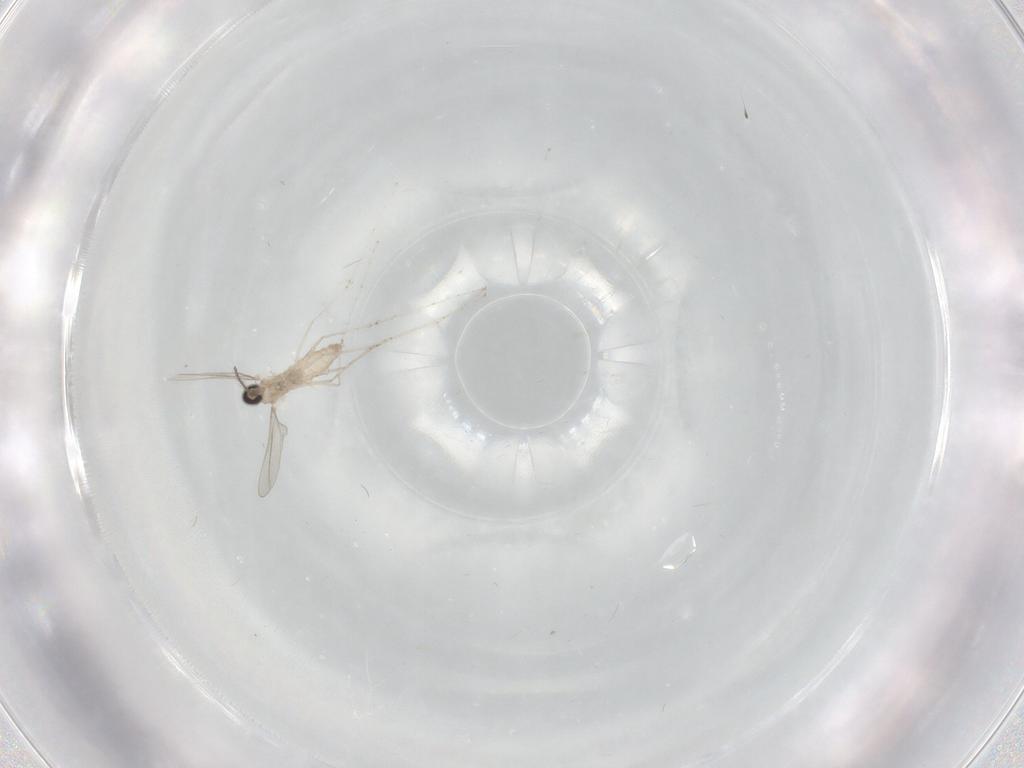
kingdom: Animalia
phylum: Arthropoda
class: Insecta
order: Diptera
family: Cecidomyiidae
